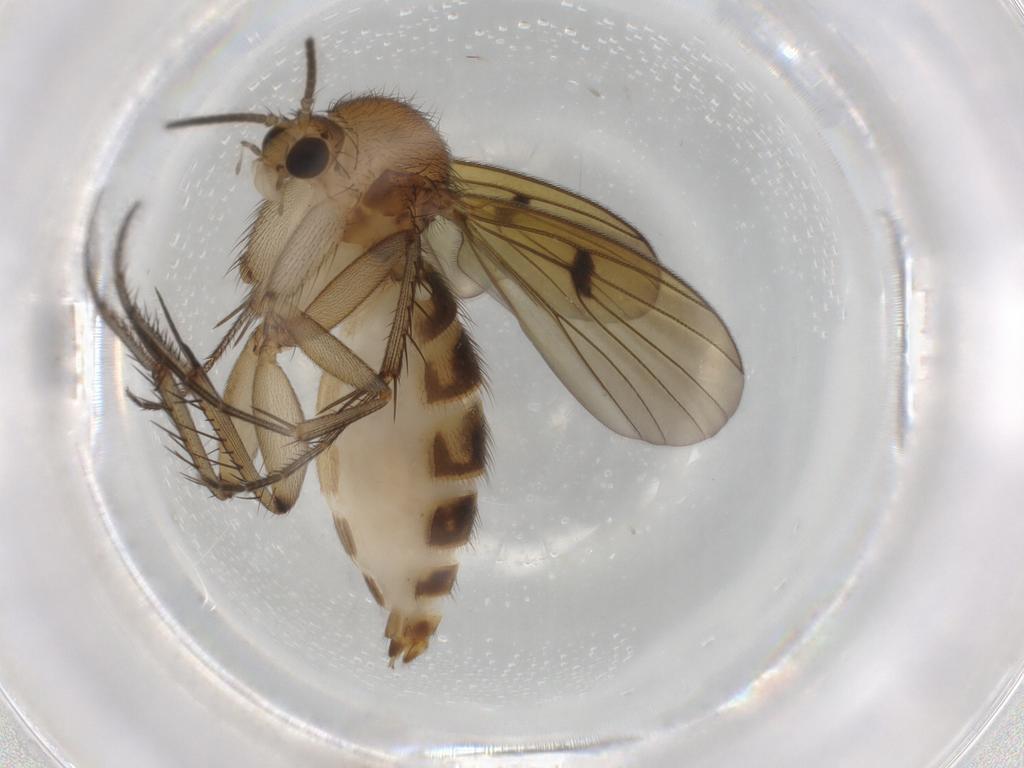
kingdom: Animalia
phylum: Arthropoda
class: Insecta
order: Diptera
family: Mycetophilidae
